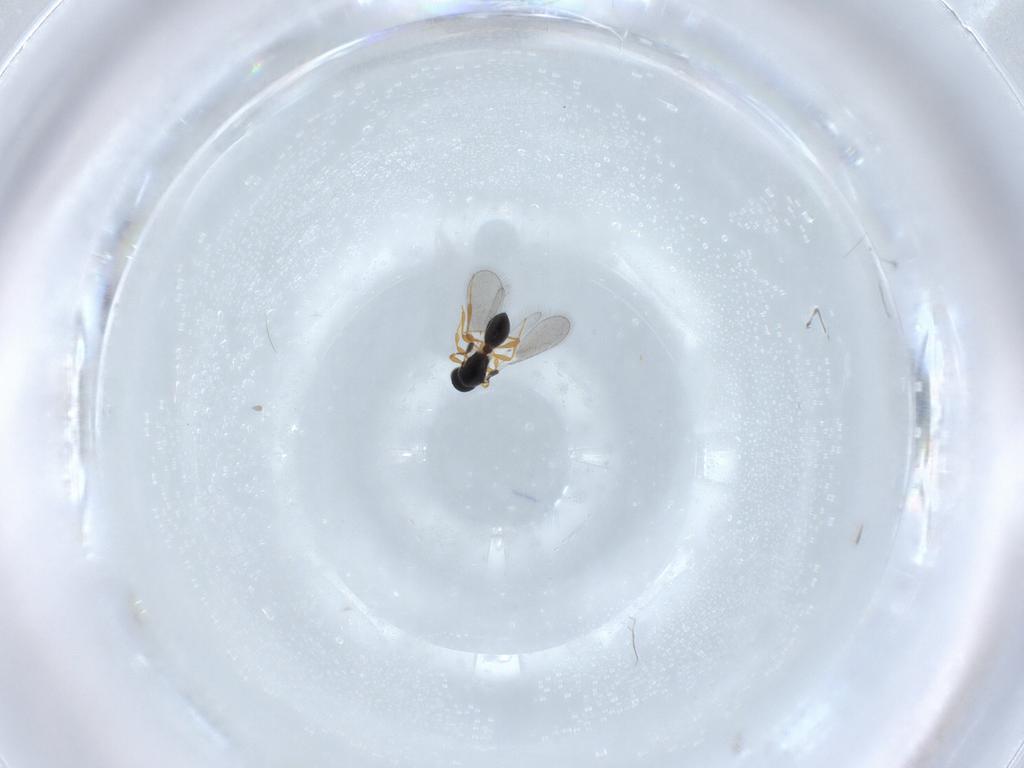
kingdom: Animalia
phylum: Arthropoda
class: Insecta
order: Hymenoptera
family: Platygastridae
